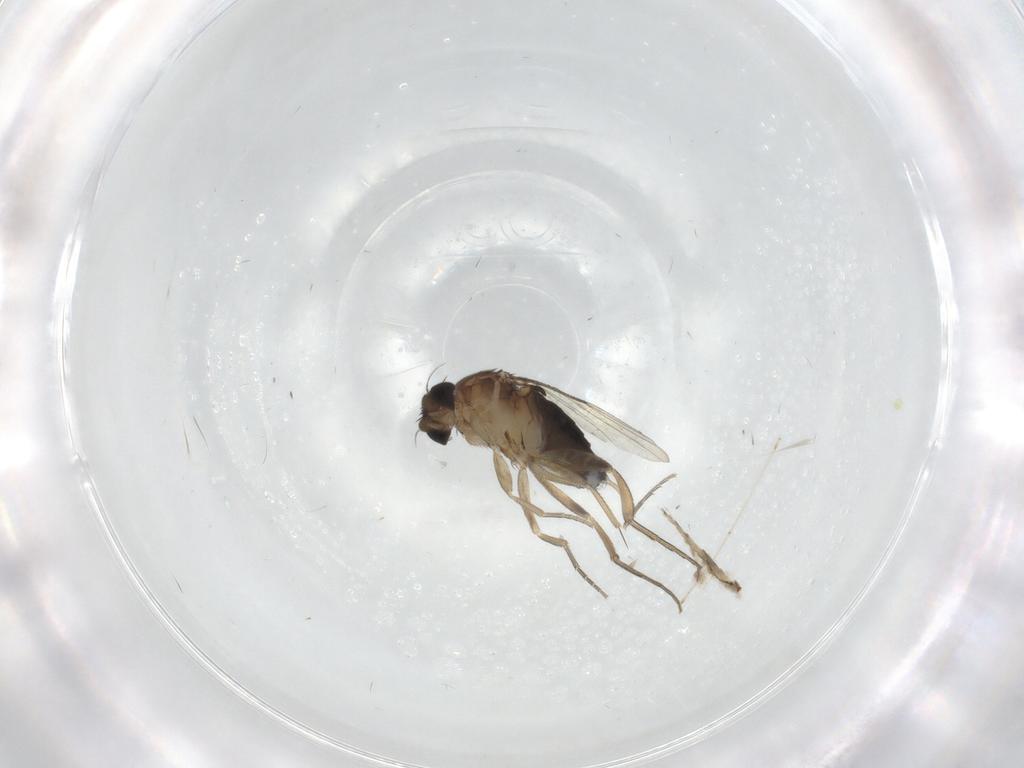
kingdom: Animalia
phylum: Arthropoda
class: Insecta
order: Diptera
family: Phoridae
